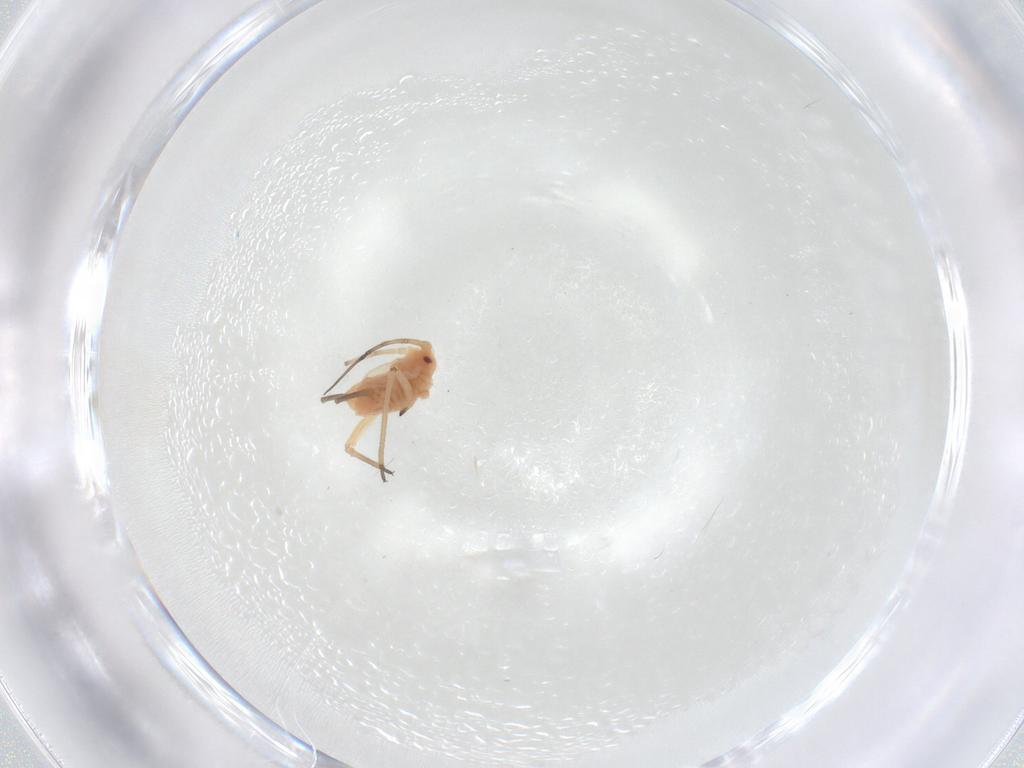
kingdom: Animalia
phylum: Arthropoda
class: Insecta
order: Hemiptera
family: Aphididae
